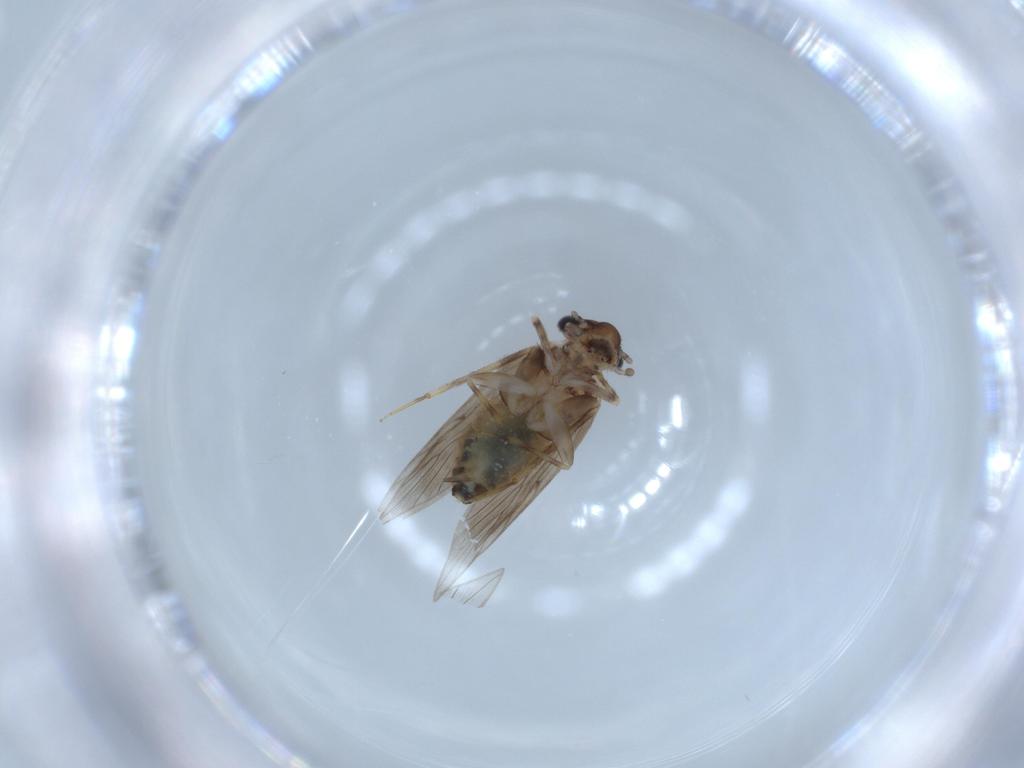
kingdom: Animalia
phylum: Arthropoda
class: Insecta
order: Psocodea
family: Lepidopsocidae
